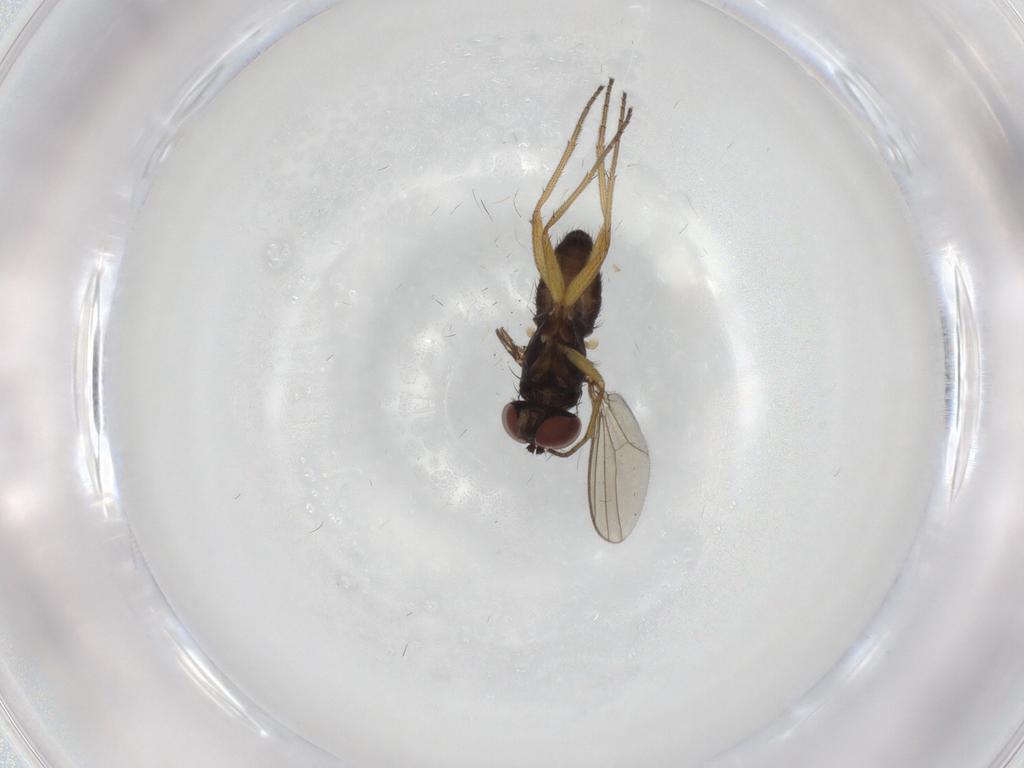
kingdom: Animalia
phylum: Arthropoda
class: Insecta
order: Diptera
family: Dolichopodidae
